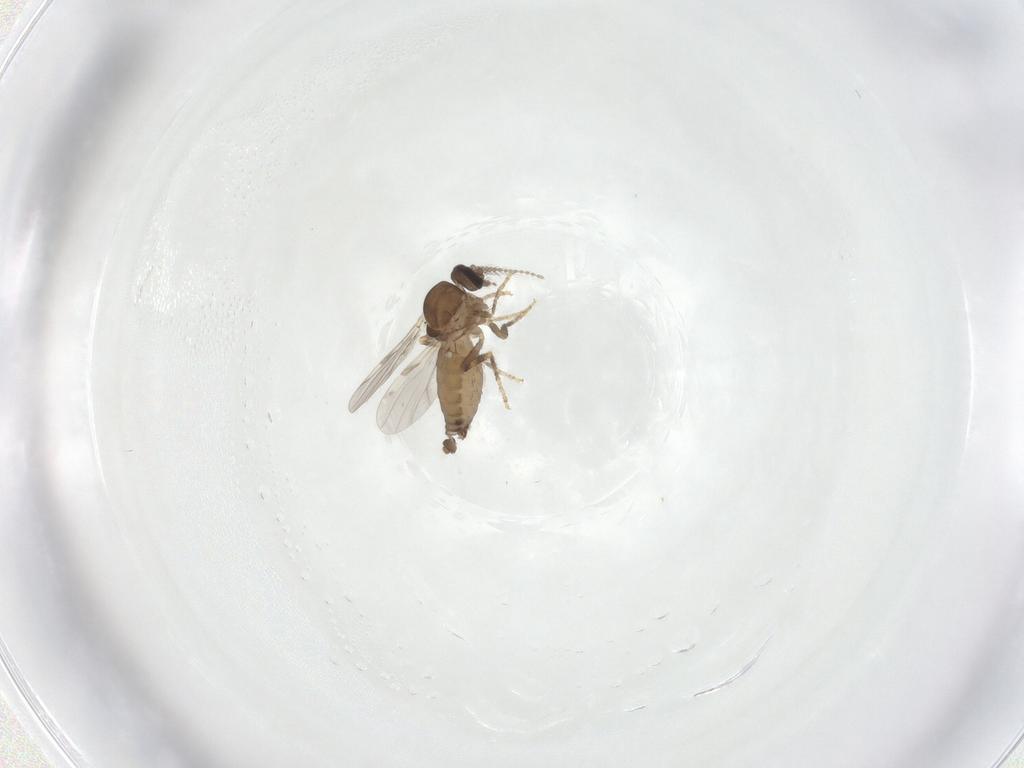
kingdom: Animalia
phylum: Arthropoda
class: Insecta
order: Diptera
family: Ceratopogonidae
